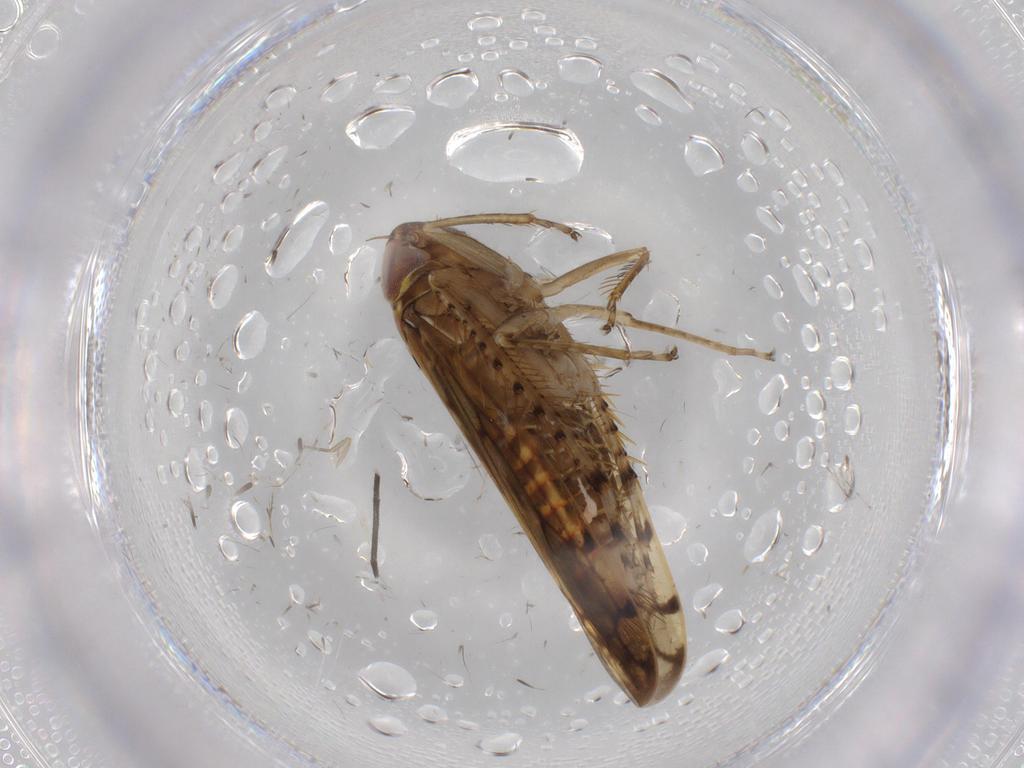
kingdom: Animalia
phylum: Arthropoda
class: Insecta
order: Hemiptera
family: Cicadellidae
